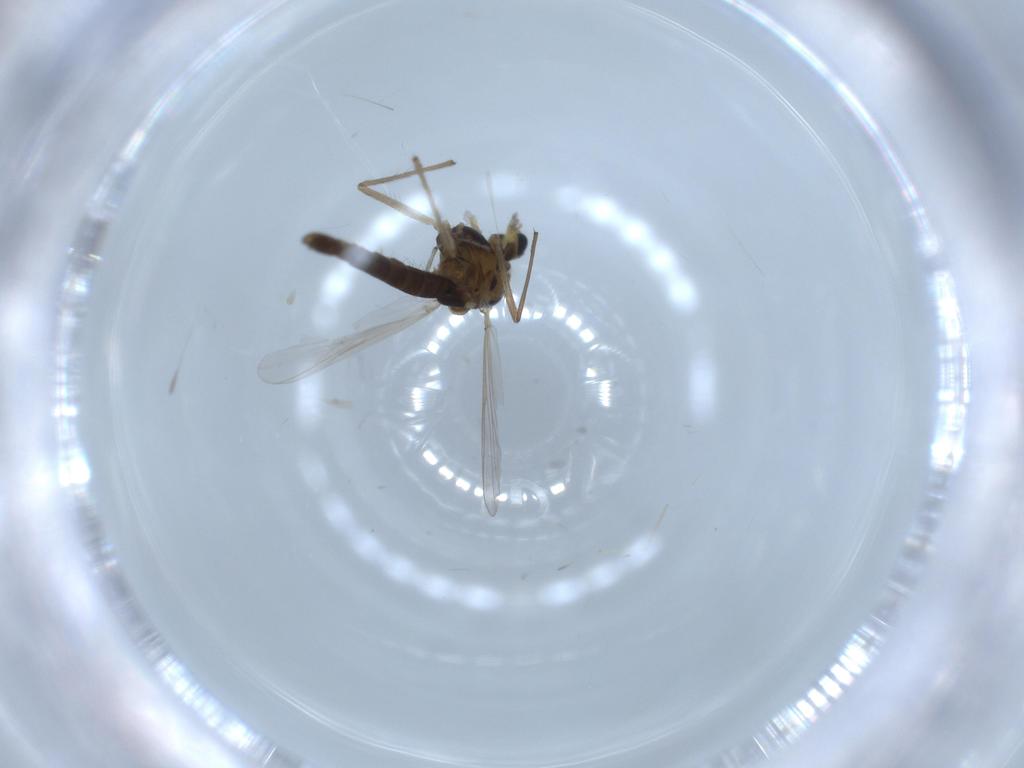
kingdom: Animalia
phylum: Arthropoda
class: Insecta
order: Diptera
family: Chironomidae
